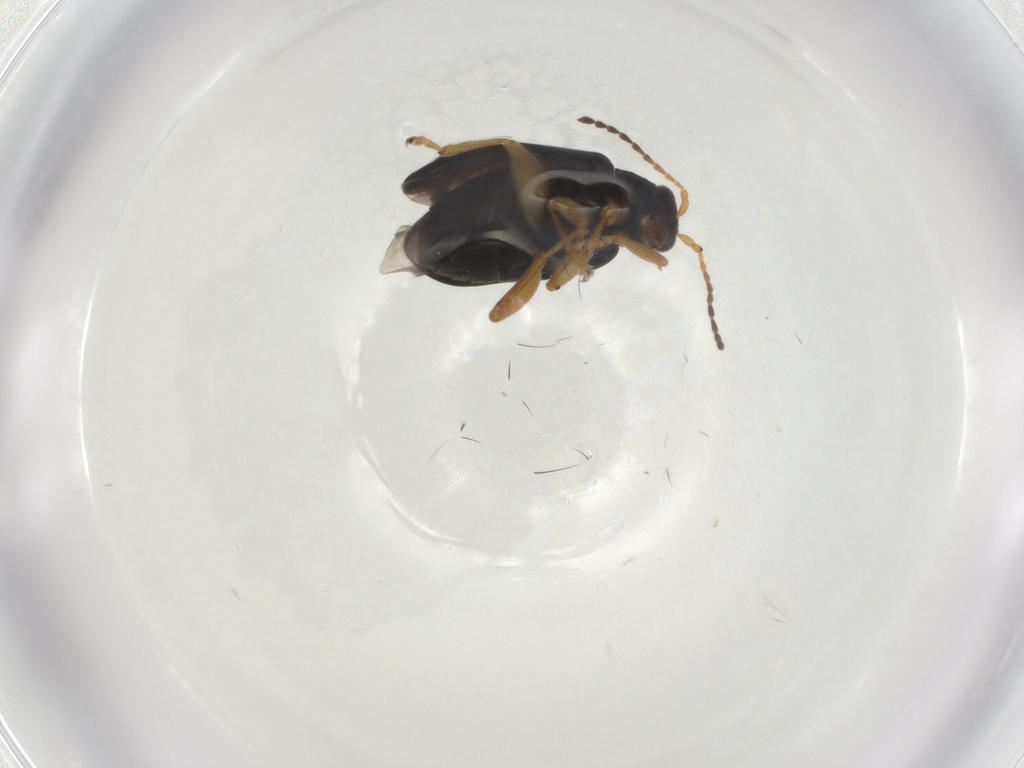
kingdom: Animalia
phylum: Arthropoda
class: Insecta
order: Coleoptera
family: Chrysomelidae
